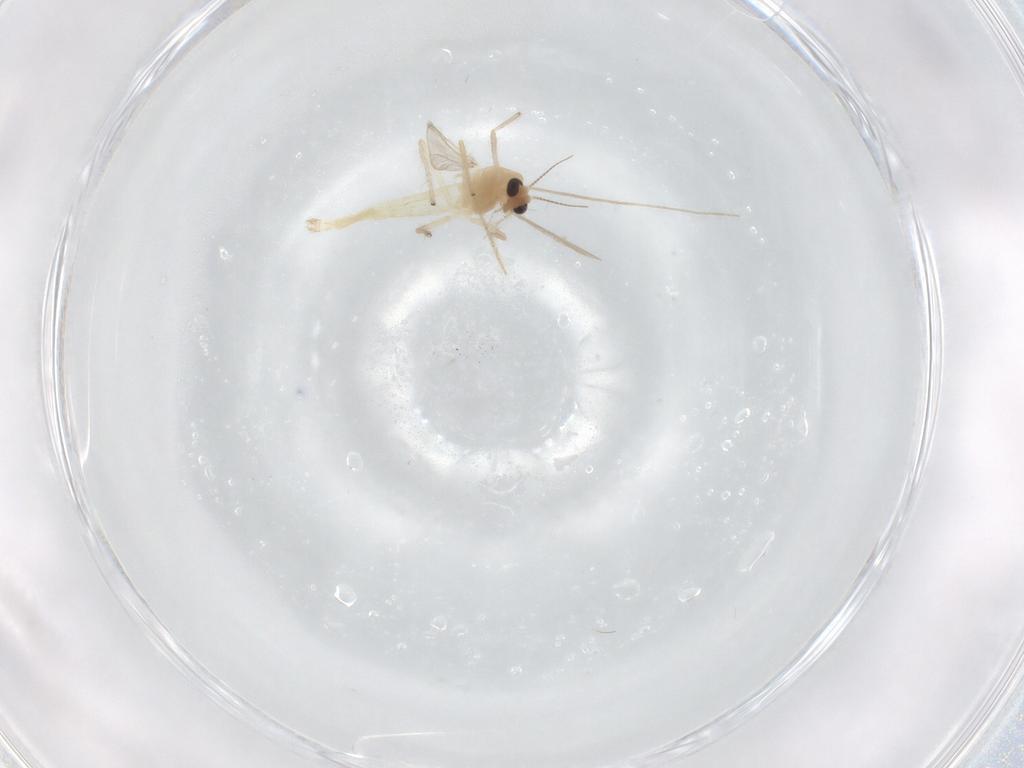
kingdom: Animalia
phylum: Arthropoda
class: Insecta
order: Diptera
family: Chironomidae
